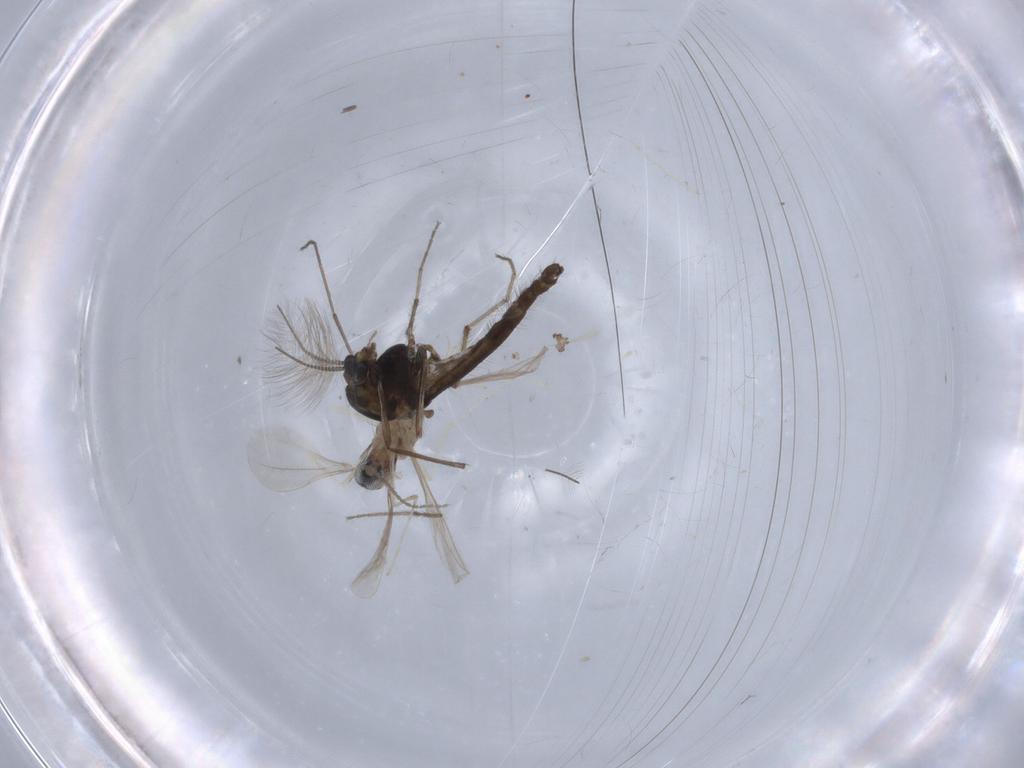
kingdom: Animalia
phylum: Arthropoda
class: Insecta
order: Diptera
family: Chironomidae
